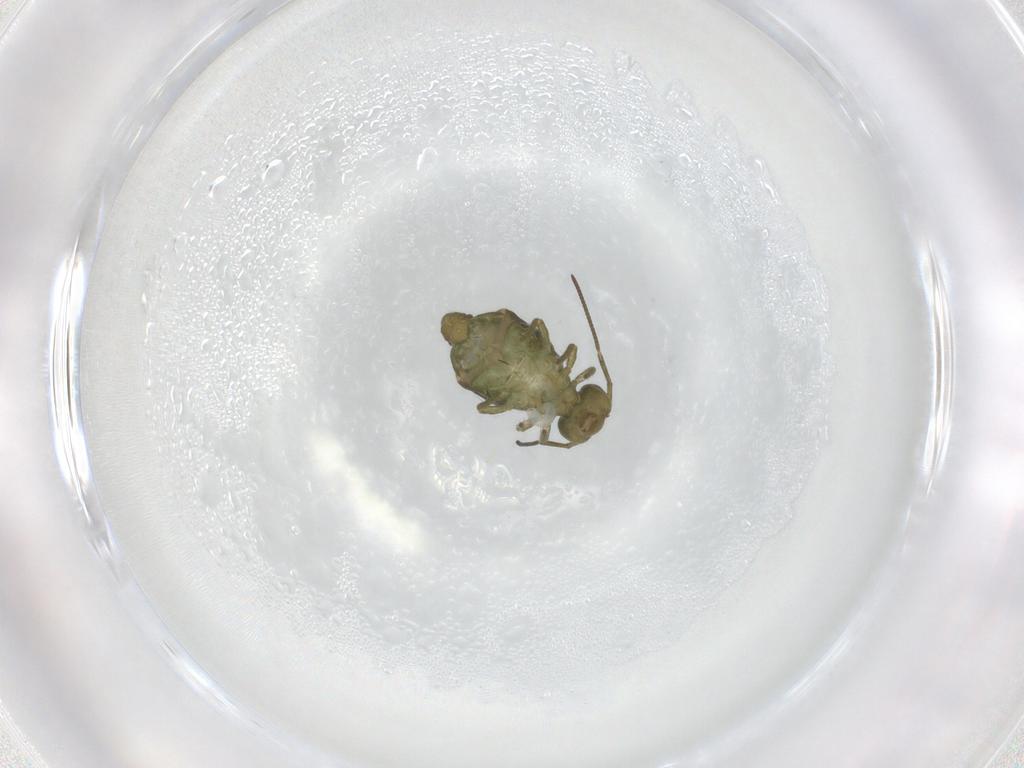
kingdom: Animalia
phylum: Arthropoda
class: Collembola
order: Symphypleona
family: Sminthuridae
